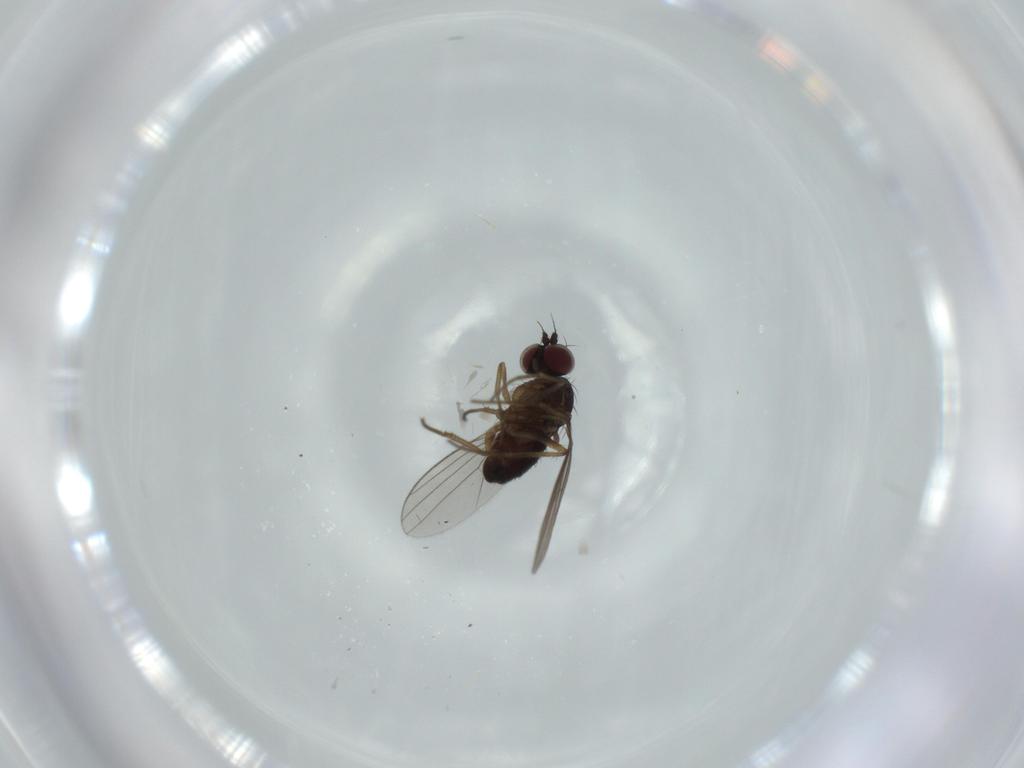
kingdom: Animalia
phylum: Arthropoda
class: Insecta
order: Diptera
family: Dolichopodidae
